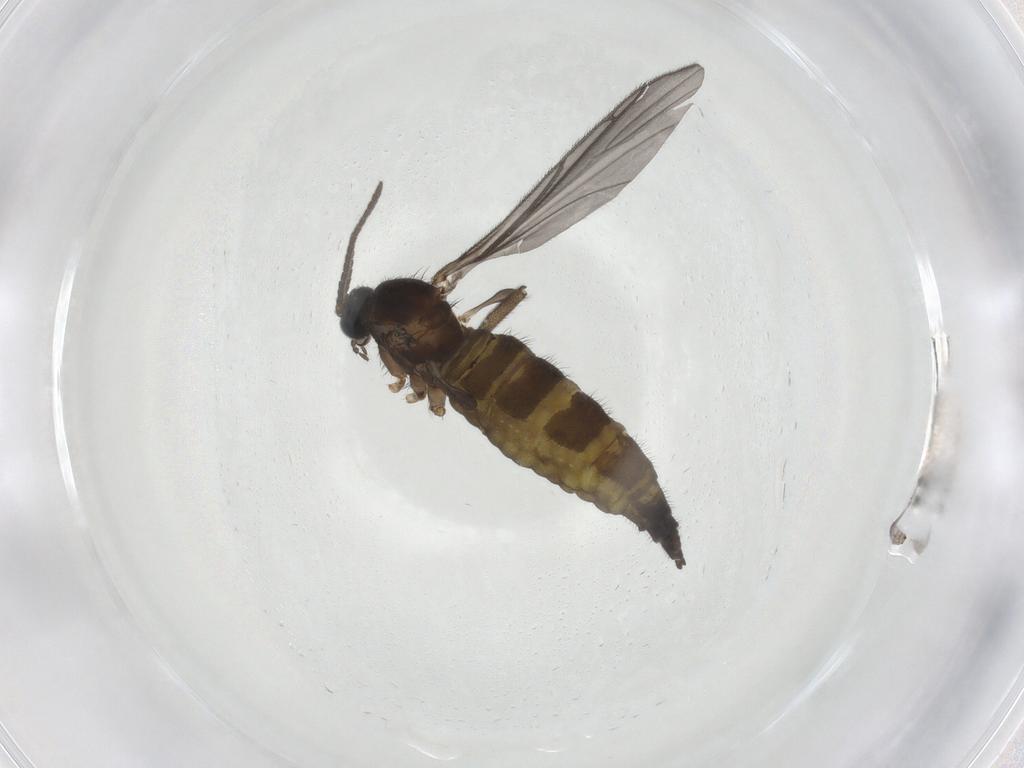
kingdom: Animalia
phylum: Arthropoda
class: Insecta
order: Diptera
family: Sciaridae
